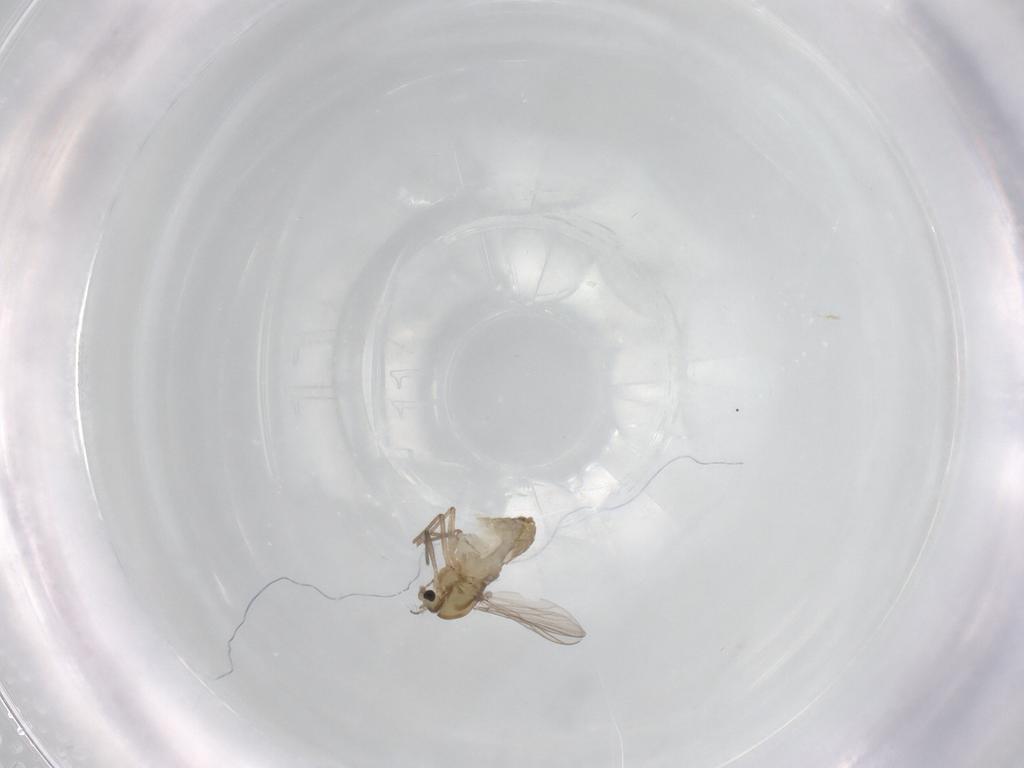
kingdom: Animalia
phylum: Arthropoda
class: Insecta
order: Diptera
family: Chironomidae
